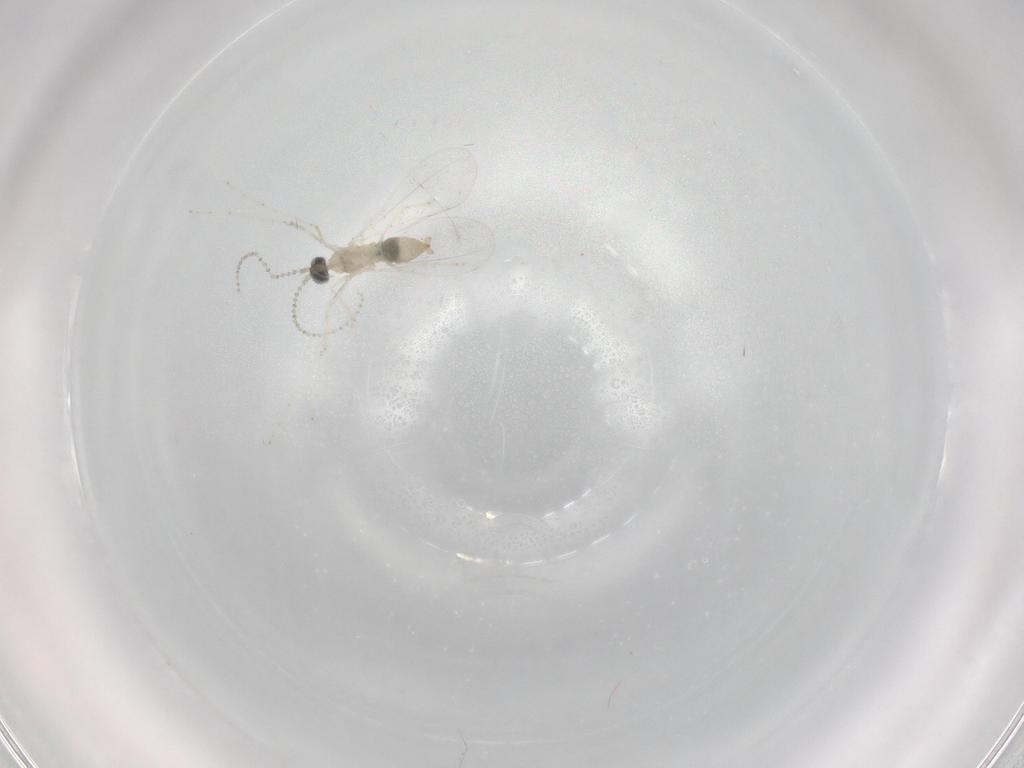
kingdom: Animalia
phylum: Arthropoda
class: Insecta
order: Diptera
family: Cecidomyiidae
